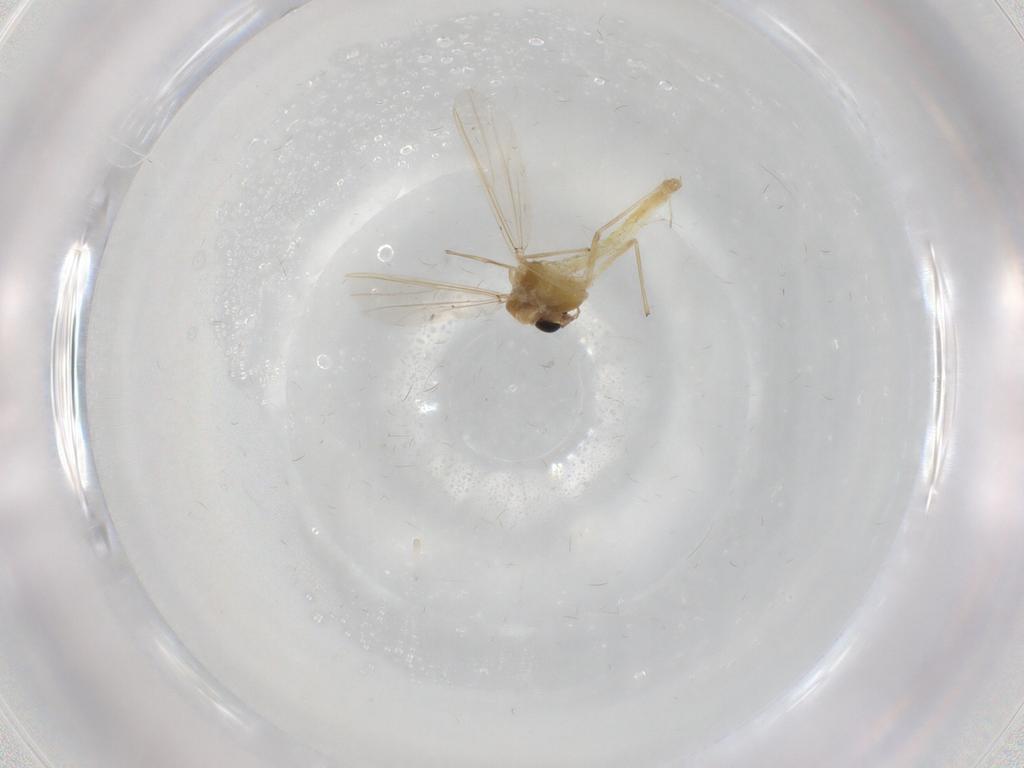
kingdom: Animalia
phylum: Arthropoda
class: Insecta
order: Diptera
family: Chironomidae
